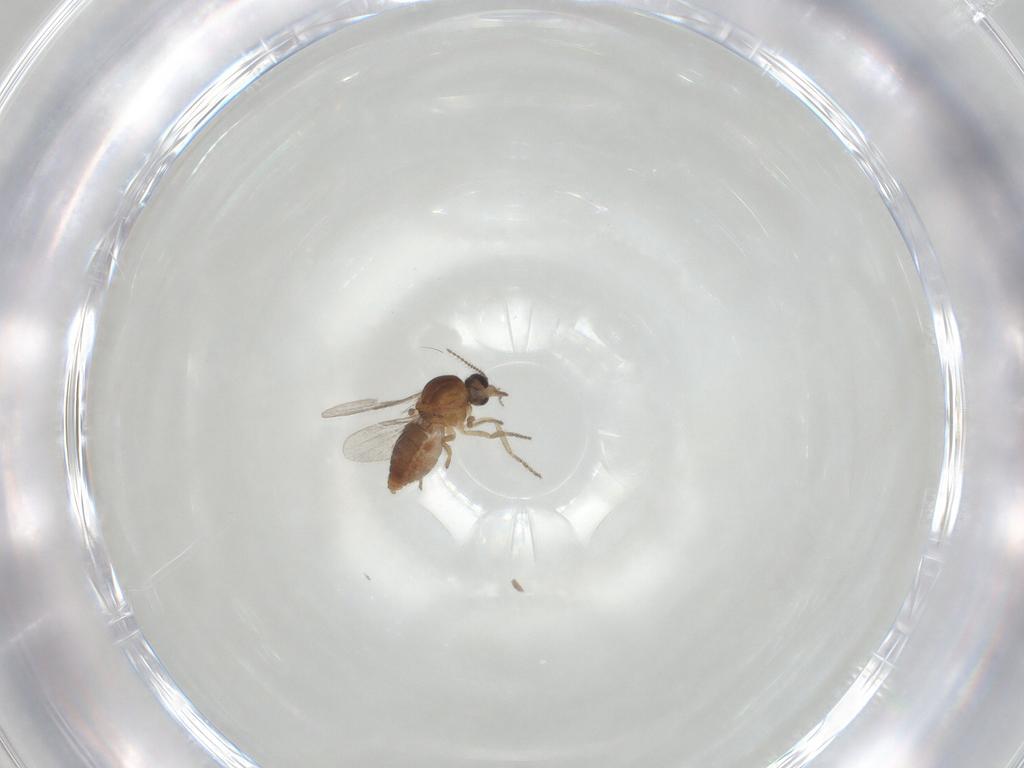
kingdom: Animalia
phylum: Arthropoda
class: Insecta
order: Diptera
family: Ceratopogonidae
